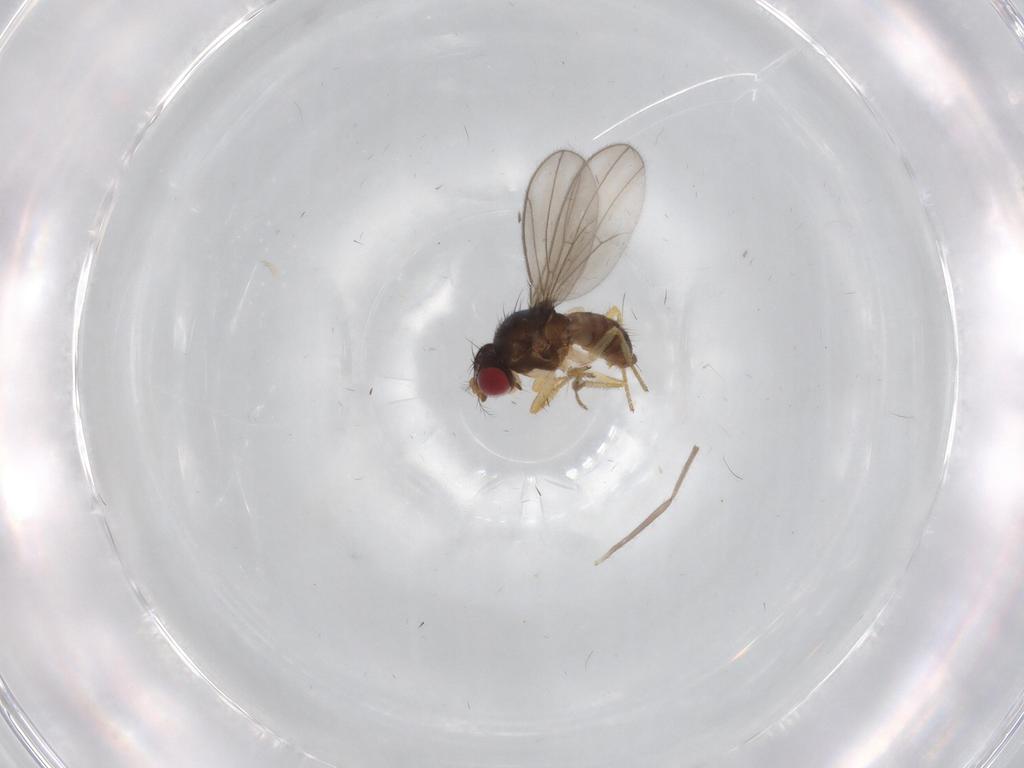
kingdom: Animalia
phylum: Arthropoda
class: Insecta
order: Diptera
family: Drosophilidae
